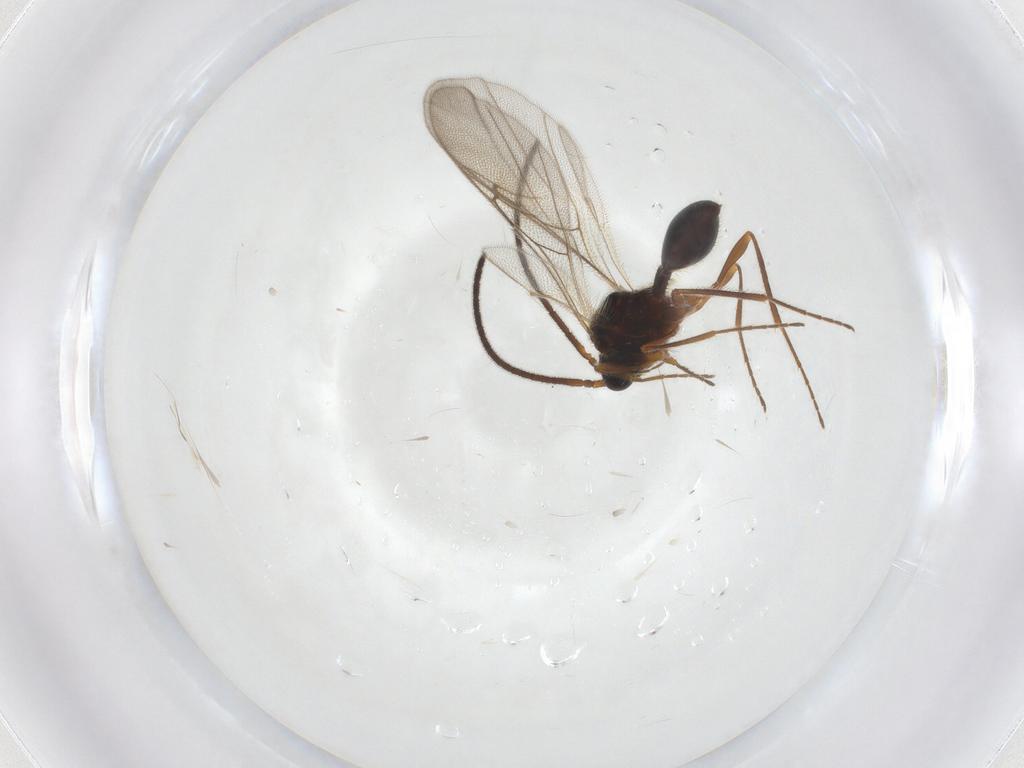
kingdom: Animalia
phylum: Arthropoda
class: Insecta
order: Hymenoptera
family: Diapriidae
